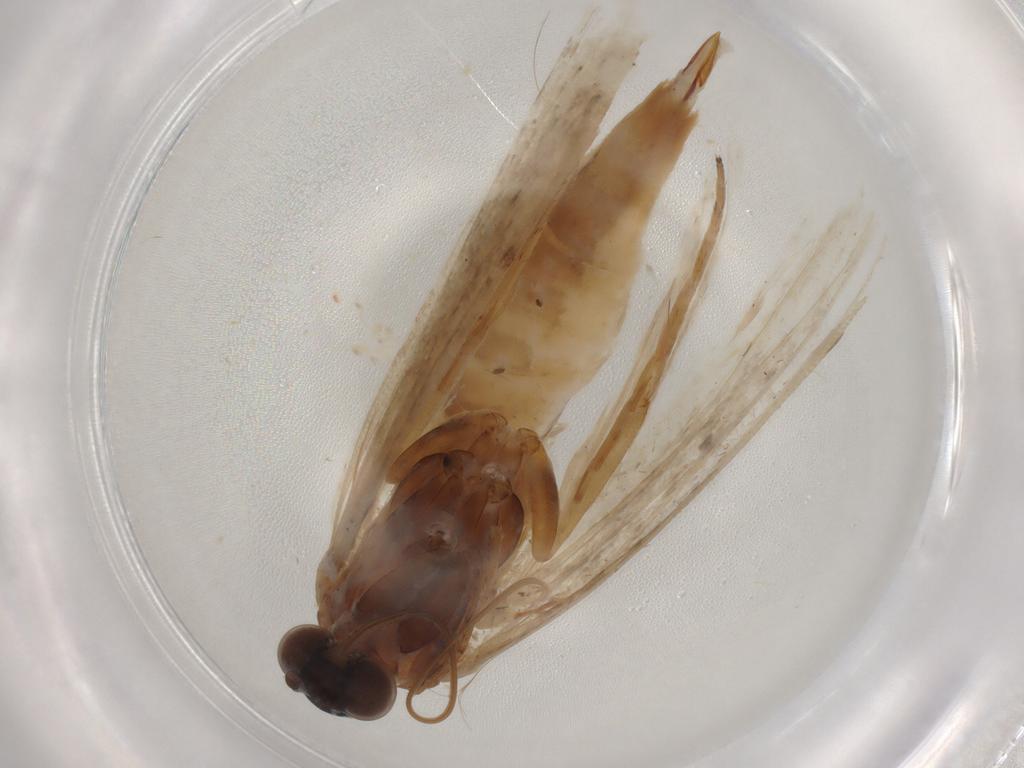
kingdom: Animalia
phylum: Arthropoda
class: Insecta
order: Lepidoptera
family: Pyralidae
